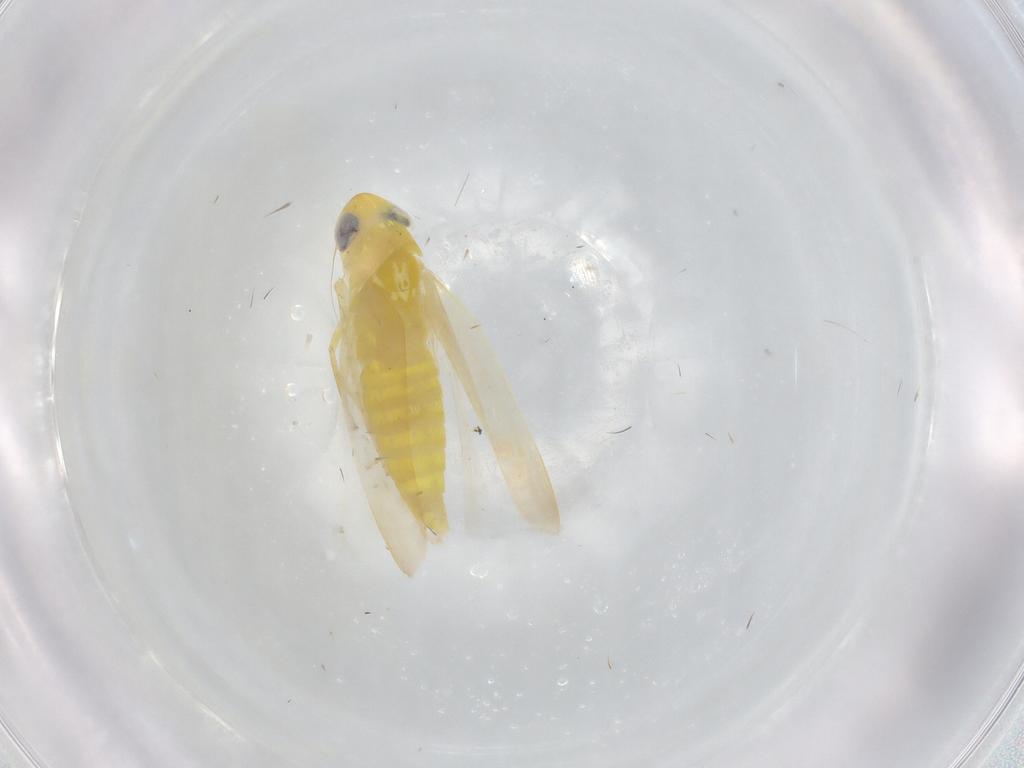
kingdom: Animalia
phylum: Arthropoda
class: Insecta
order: Hemiptera
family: Cicadellidae
